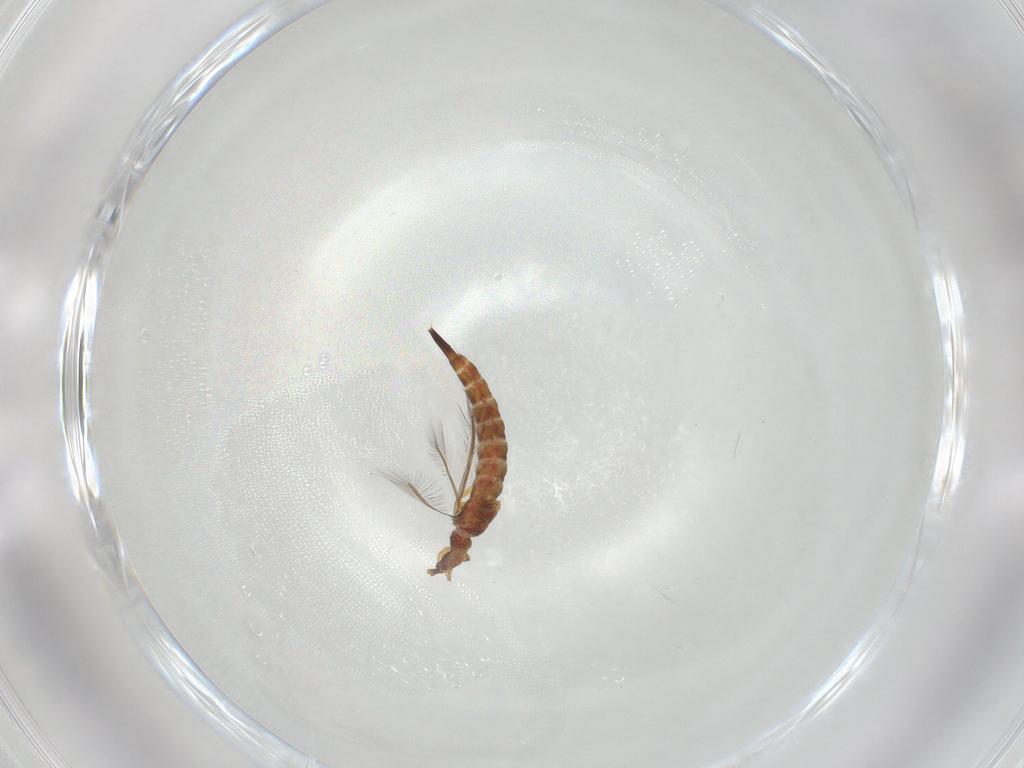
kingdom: Animalia
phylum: Arthropoda
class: Insecta
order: Thysanoptera
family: Phlaeothripidae
